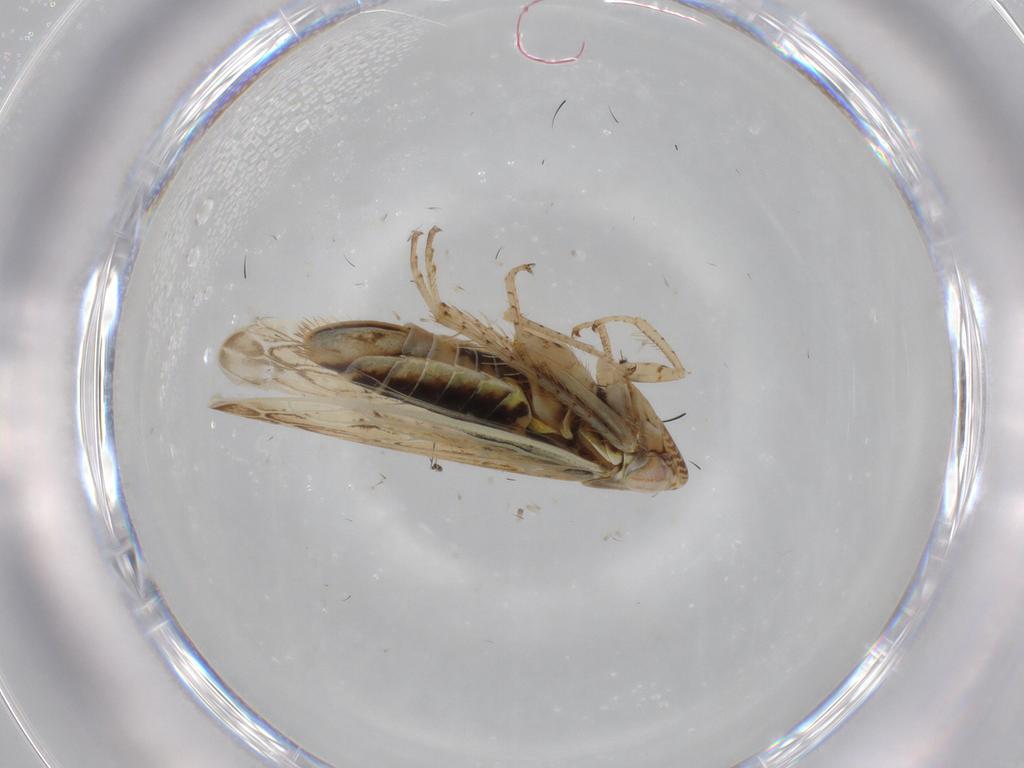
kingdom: Animalia
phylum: Arthropoda
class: Insecta
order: Hemiptera
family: Cicadellidae
